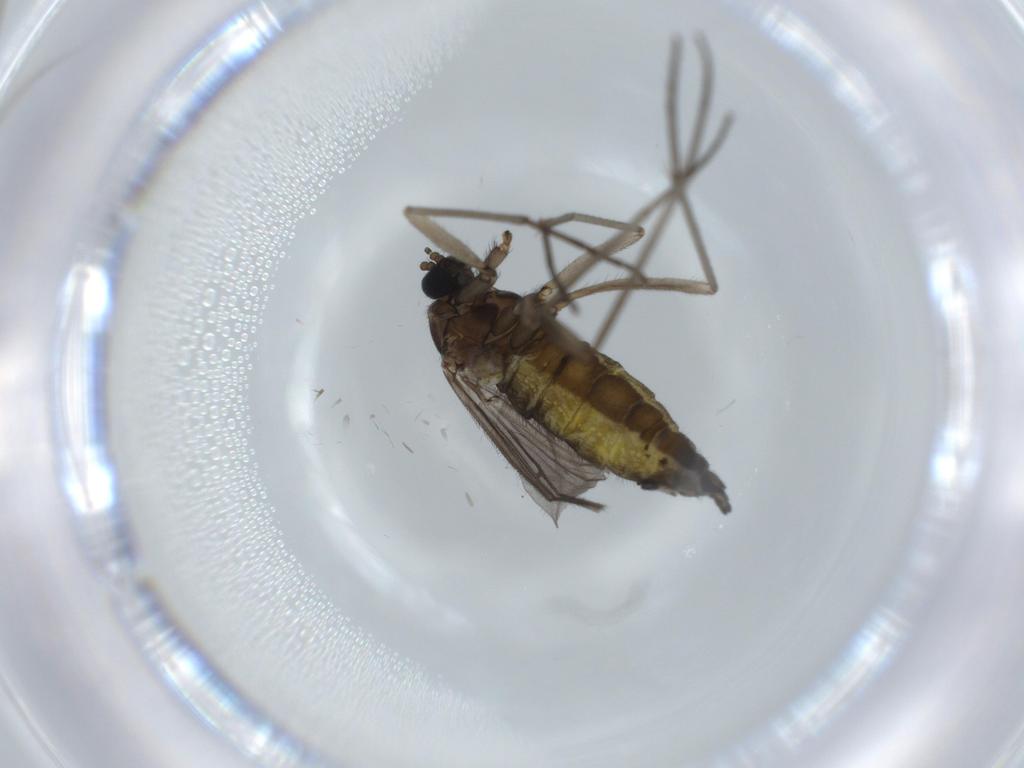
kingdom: Animalia
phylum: Arthropoda
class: Insecta
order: Diptera
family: Sciaridae
